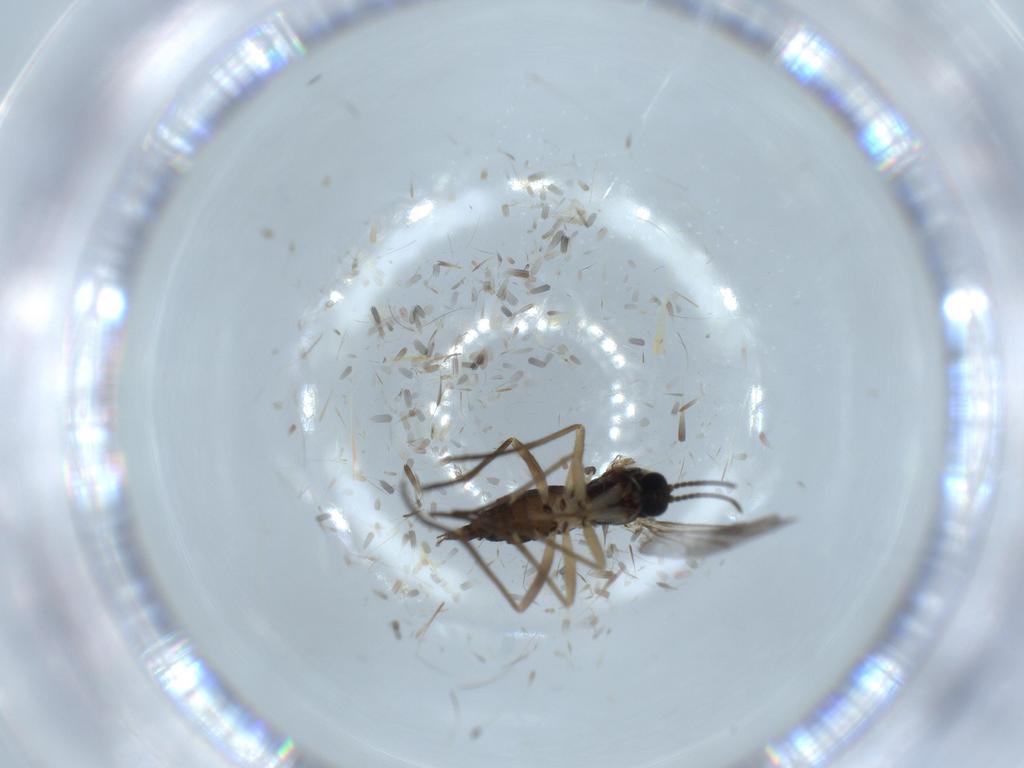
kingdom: Animalia
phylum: Arthropoda
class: Insecta
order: Diptera
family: Sciaridae
